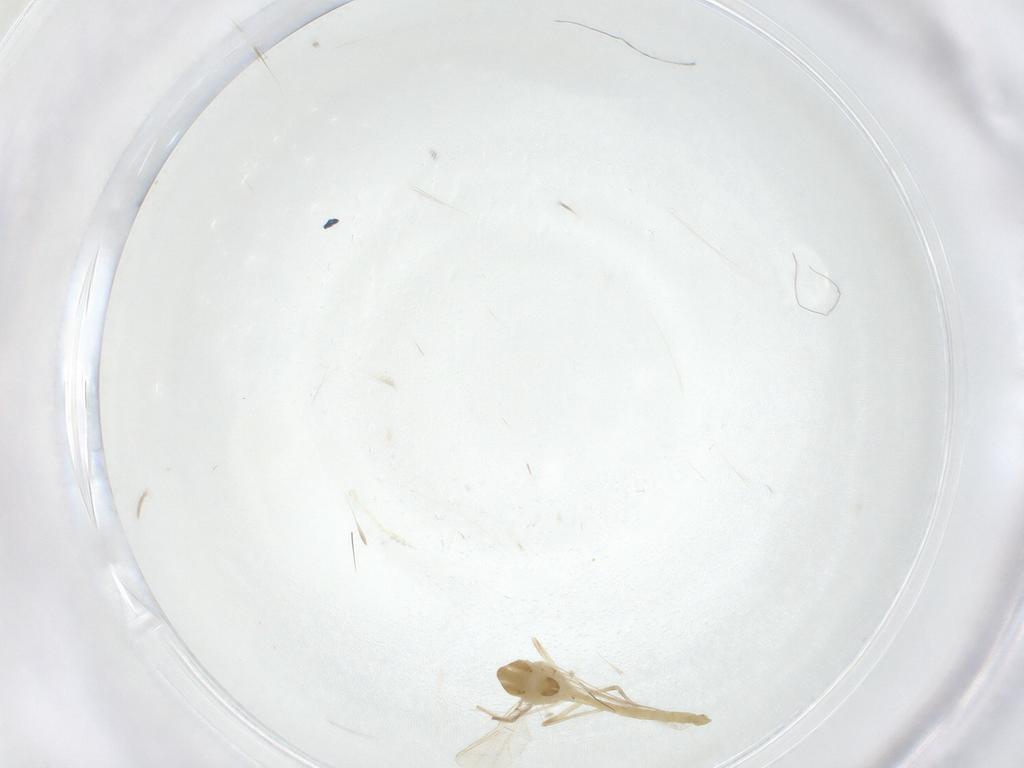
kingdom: Animalia
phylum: Arthropoda
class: Insecta
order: Diptera
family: Chironomidae
